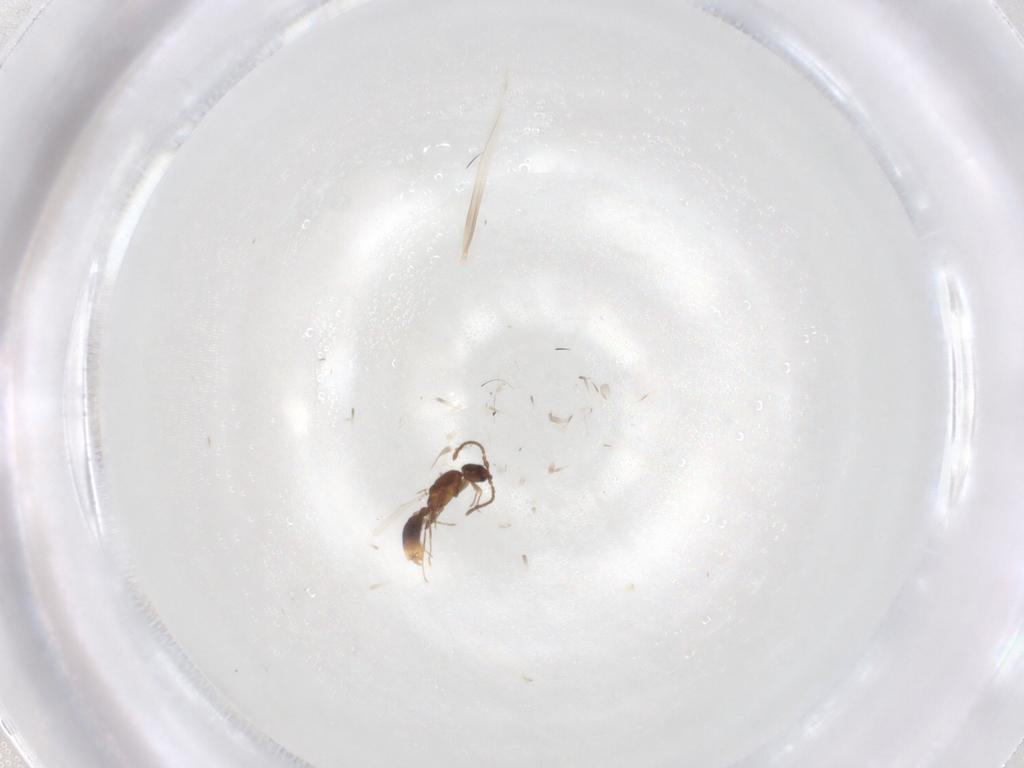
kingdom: Animalia
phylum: Arthropoda
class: Insecta
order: Hymenoptera
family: Formicidae
